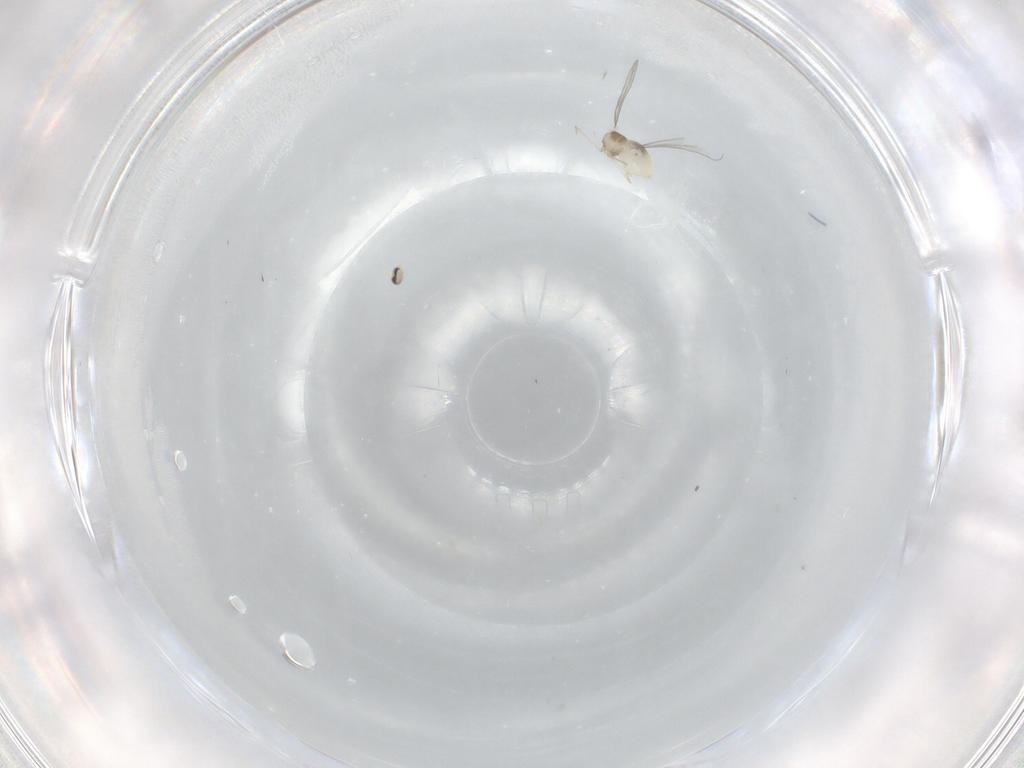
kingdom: Animalia
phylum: Arthropoda
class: Insecta
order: Diptera
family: Cecidomyiidae
